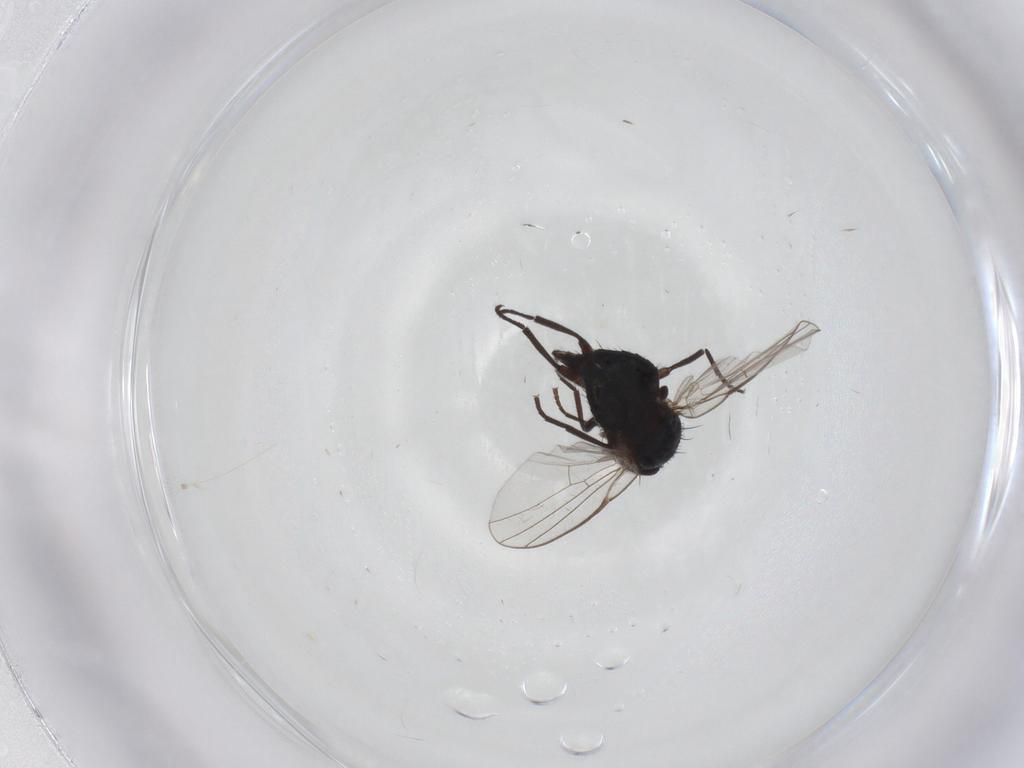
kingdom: Animalia
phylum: Arthropoda
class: Insecta
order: Diptera
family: Agromyzidae
